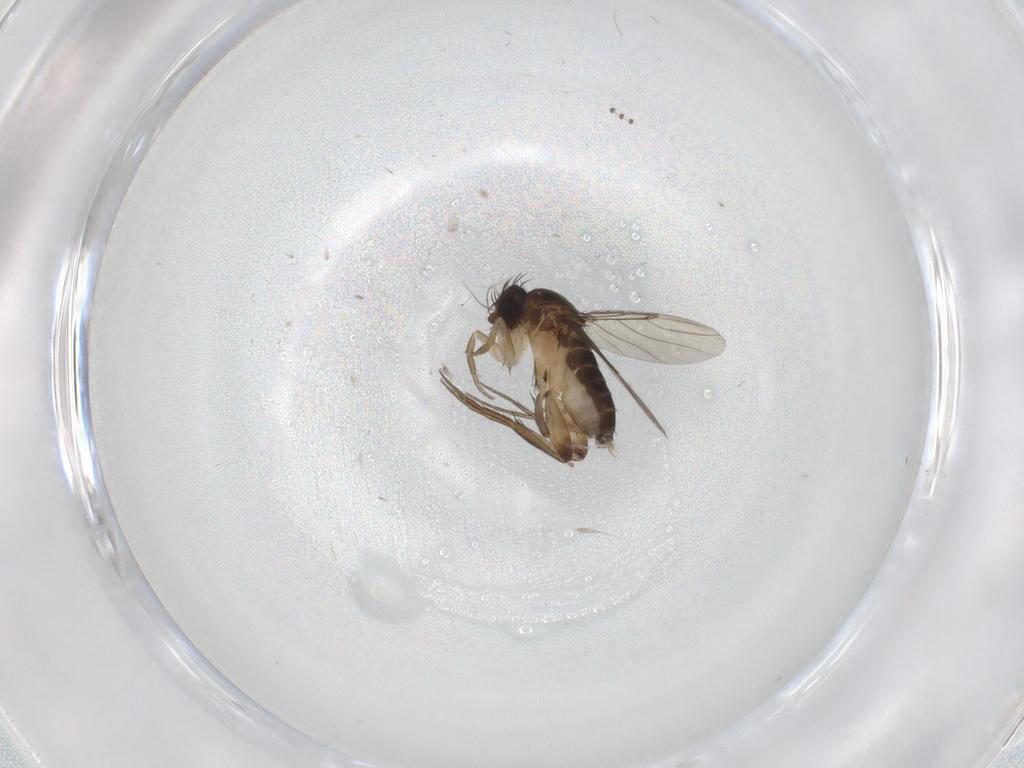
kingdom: Animalia
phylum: Arthropoda
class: Insecta
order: Diptera
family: Phoridae
